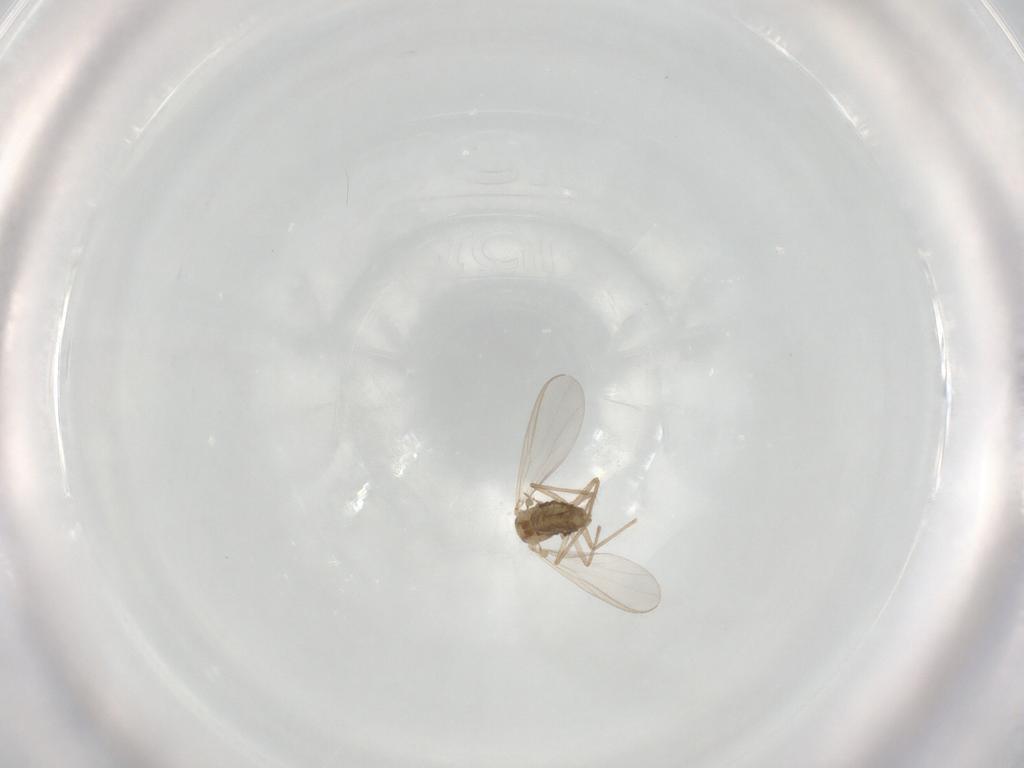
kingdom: Animalia
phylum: Arthropoda
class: Insecta
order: Diptera
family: Chironomidae
